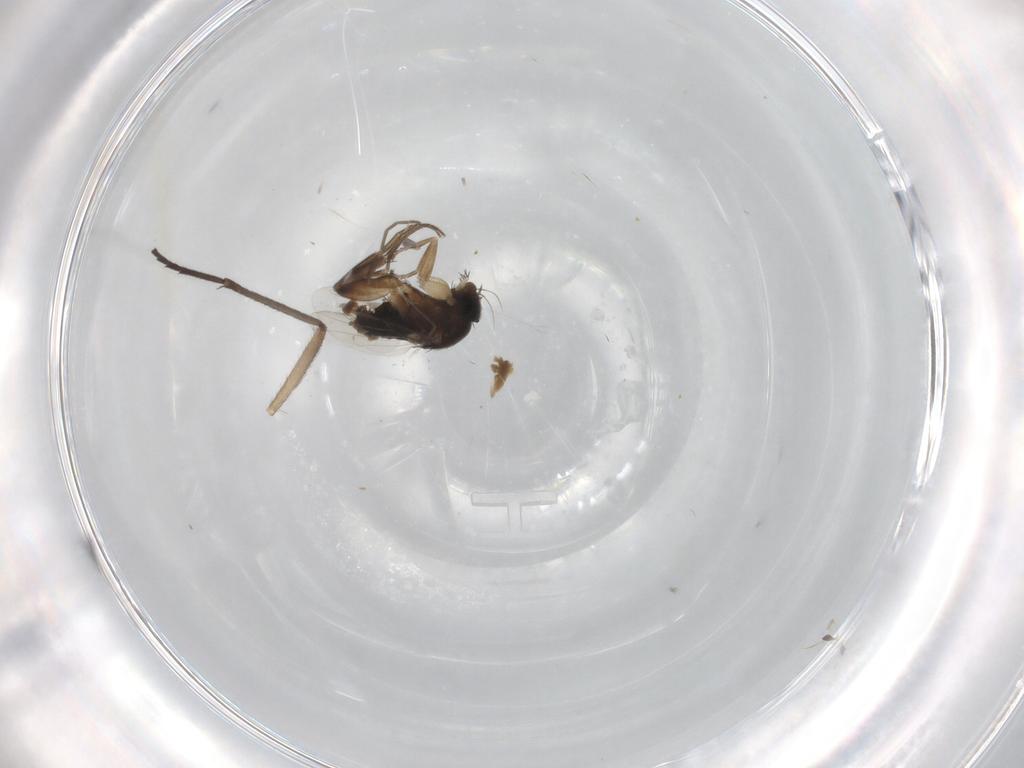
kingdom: Animalia
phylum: Arthropoda
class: Insecta
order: Diptera
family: Sciaridae
